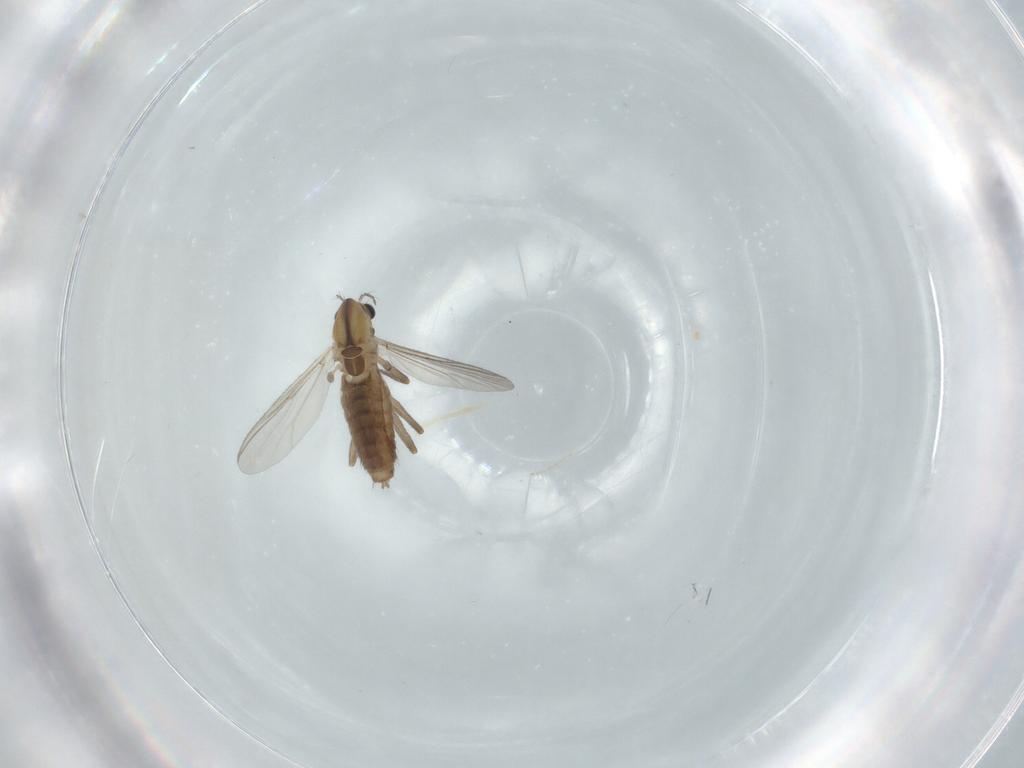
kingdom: Animalia
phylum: Arthropoda
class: Insecta
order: Diptera
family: Chironomidae
